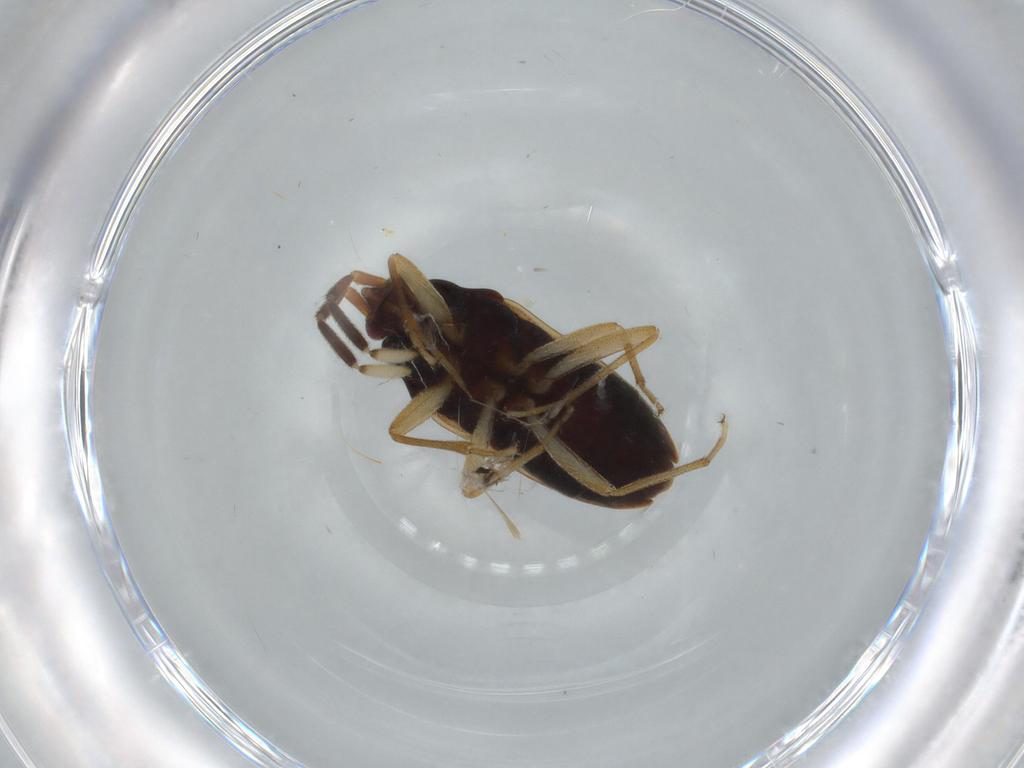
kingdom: Animalia
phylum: Arthropoda
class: Insecta
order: Hemiptera
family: Rhyparochromidae
